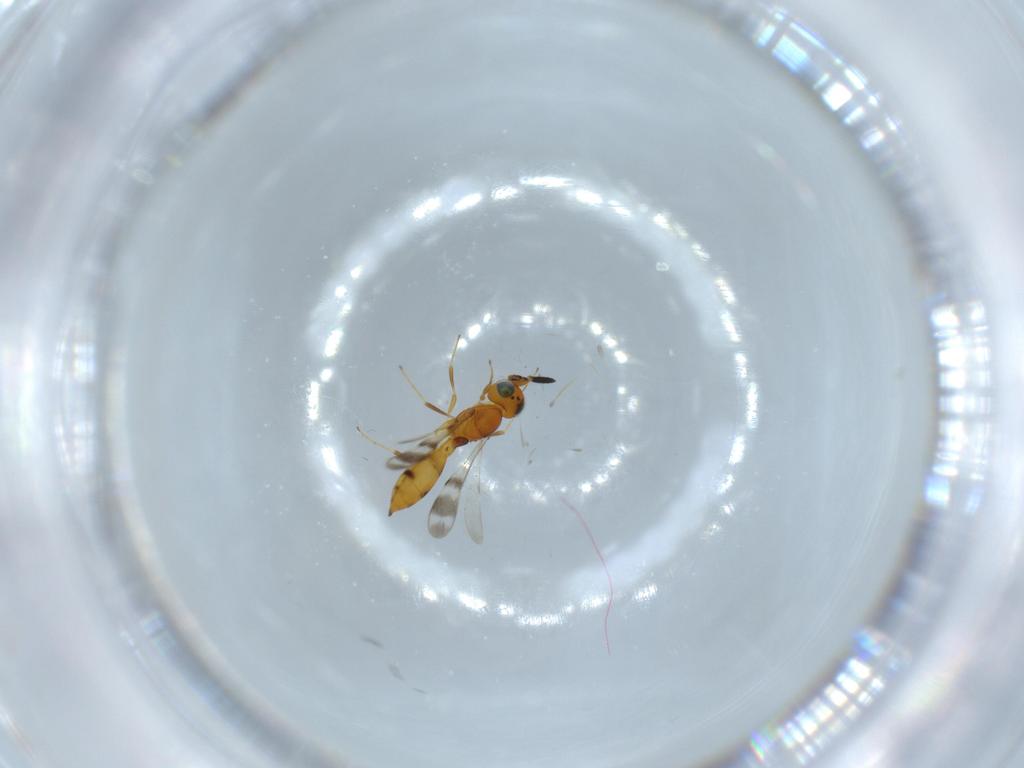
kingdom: Animalia
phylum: Arthropoda
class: Insecta
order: Hymenoptera
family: Scelionidae
